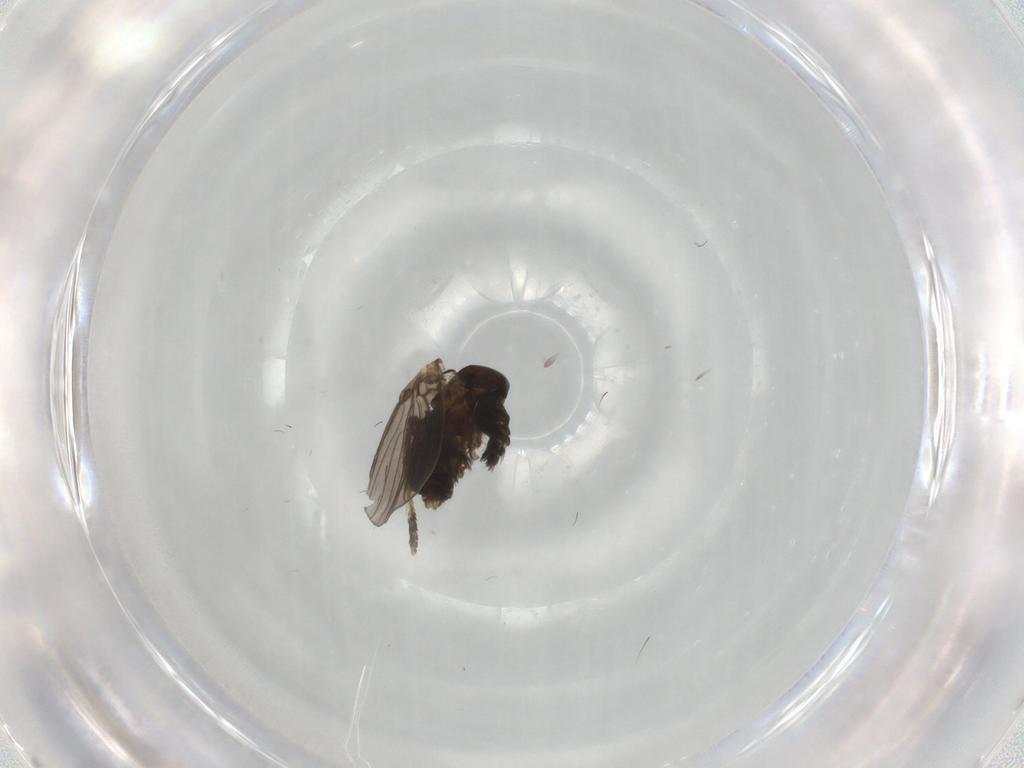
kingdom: Animalia
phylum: Arthropoda
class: Insecta
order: Diptera
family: Psychodidae
